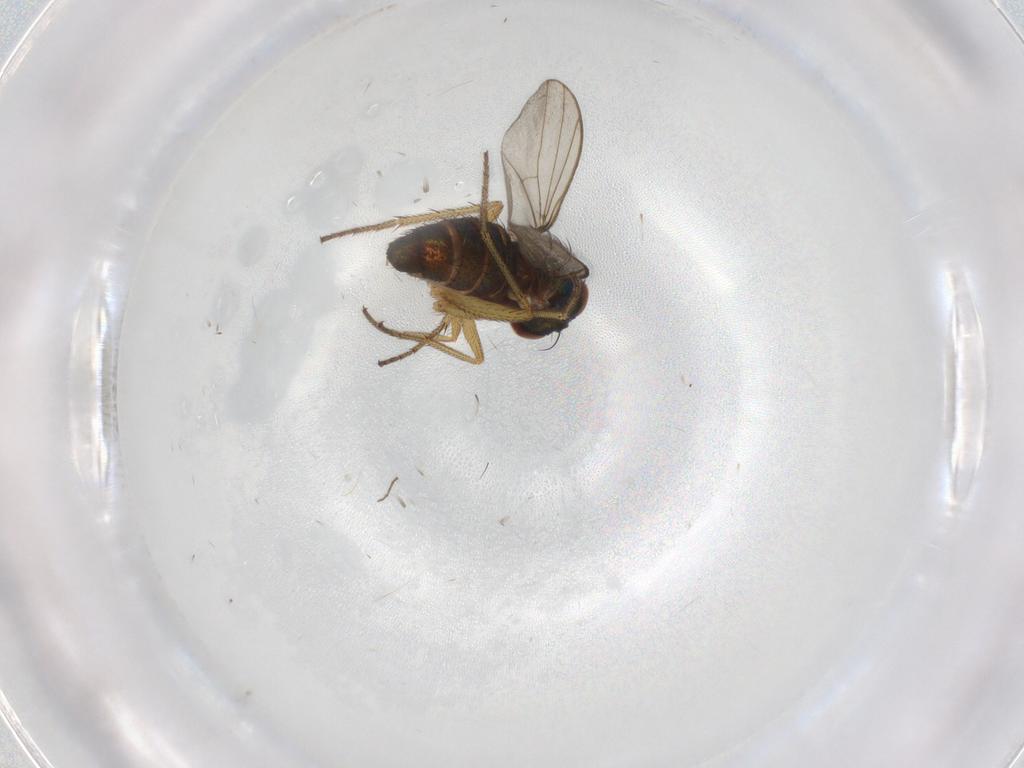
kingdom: Animalia
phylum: Arthropoda
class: Insecta
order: Diptera
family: Dolichopodidae
